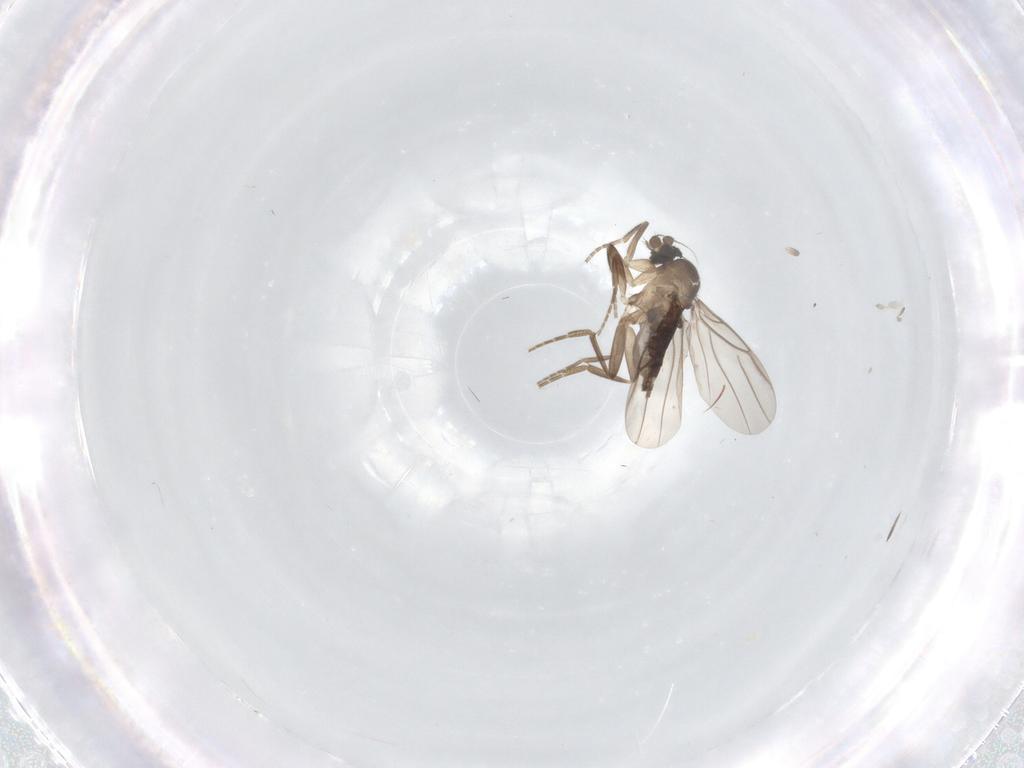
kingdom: Animalia
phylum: Arthropoda
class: Insecta
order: Diptera
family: Phoridae
